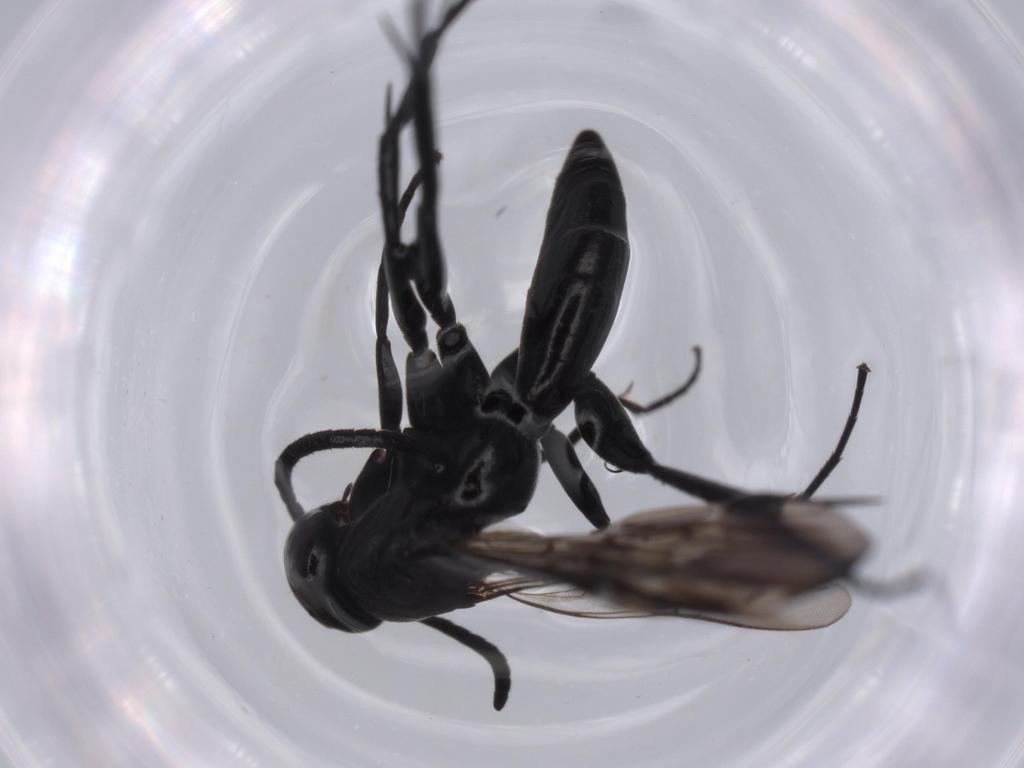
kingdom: Animalia
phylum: Arthropoda
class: Insecta
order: Hymenoptera
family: Pompilidae
